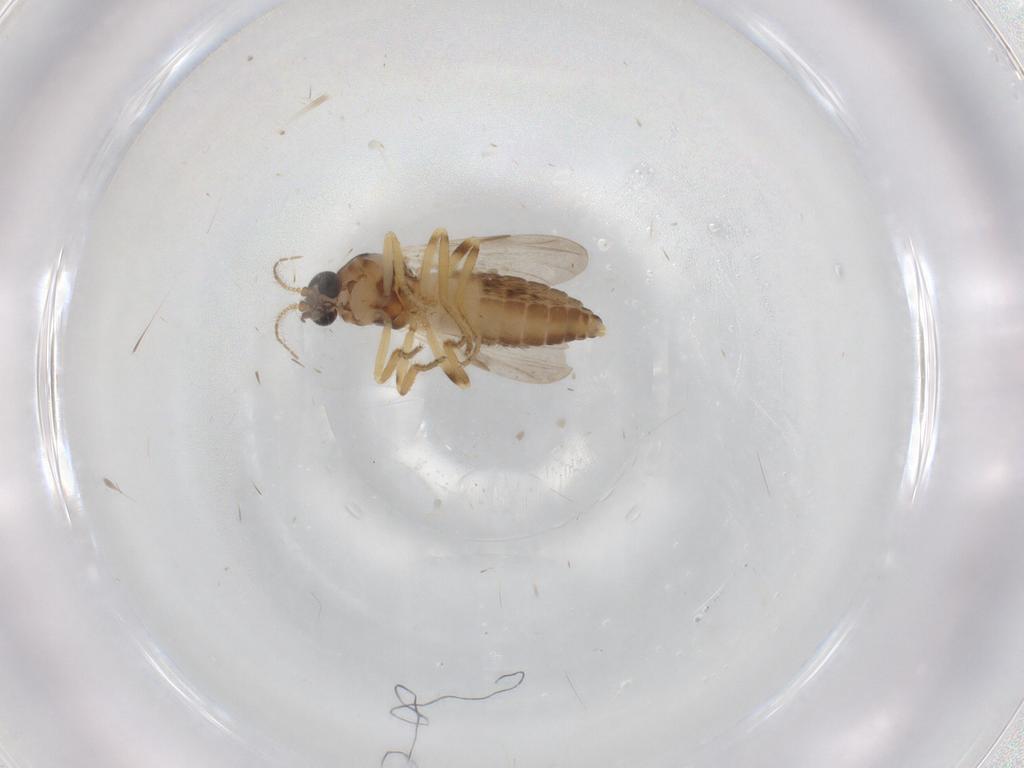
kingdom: Animalia
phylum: Arthropoda
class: Insecta
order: Diptera
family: Ceratopogonidae
